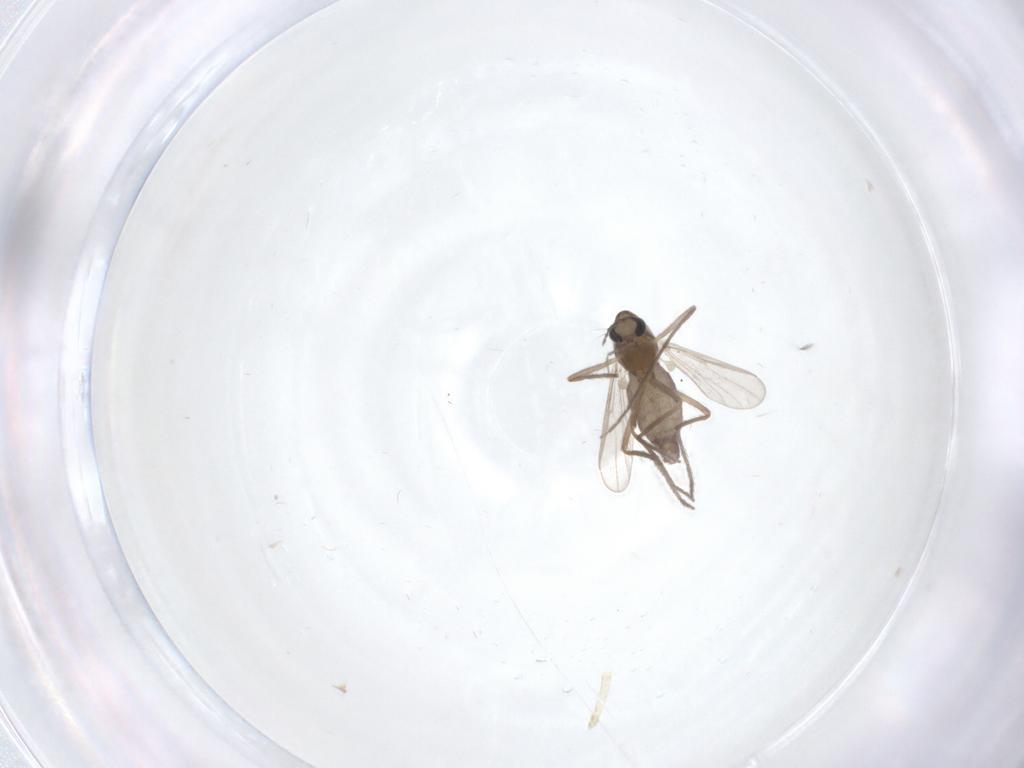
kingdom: Animalia
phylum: Arthropoda
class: Insecta
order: Diptera
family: Chironomidae
